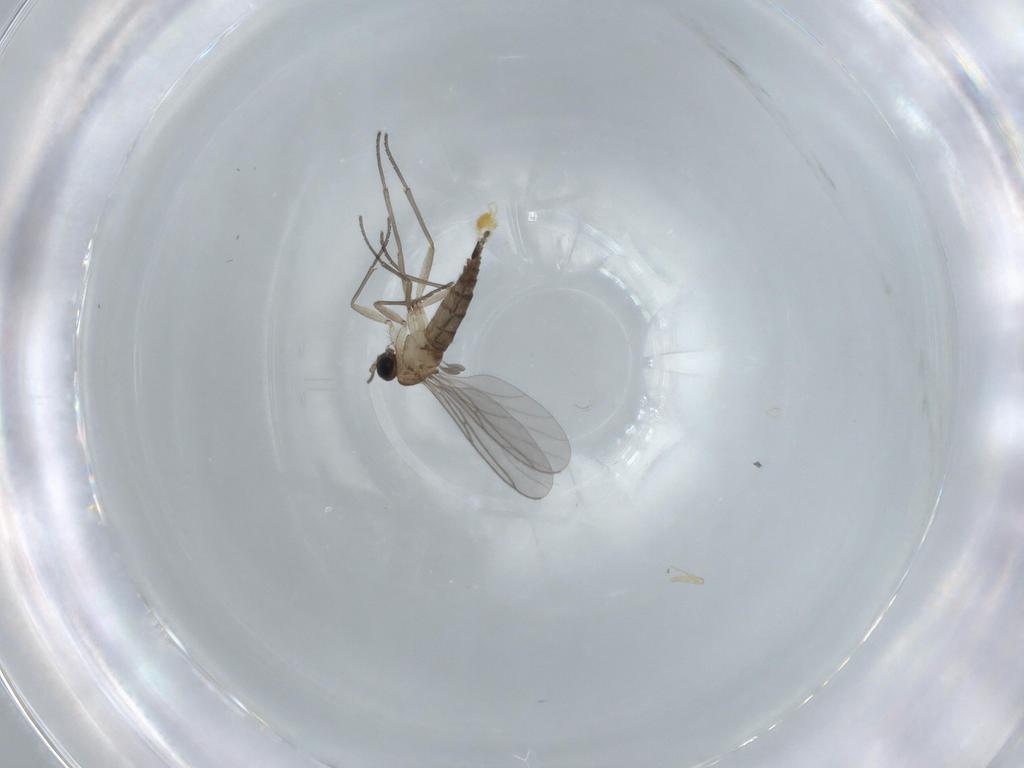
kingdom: Animalia
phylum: Arthropoda
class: Insecta
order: Diptera
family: Sciaridae
